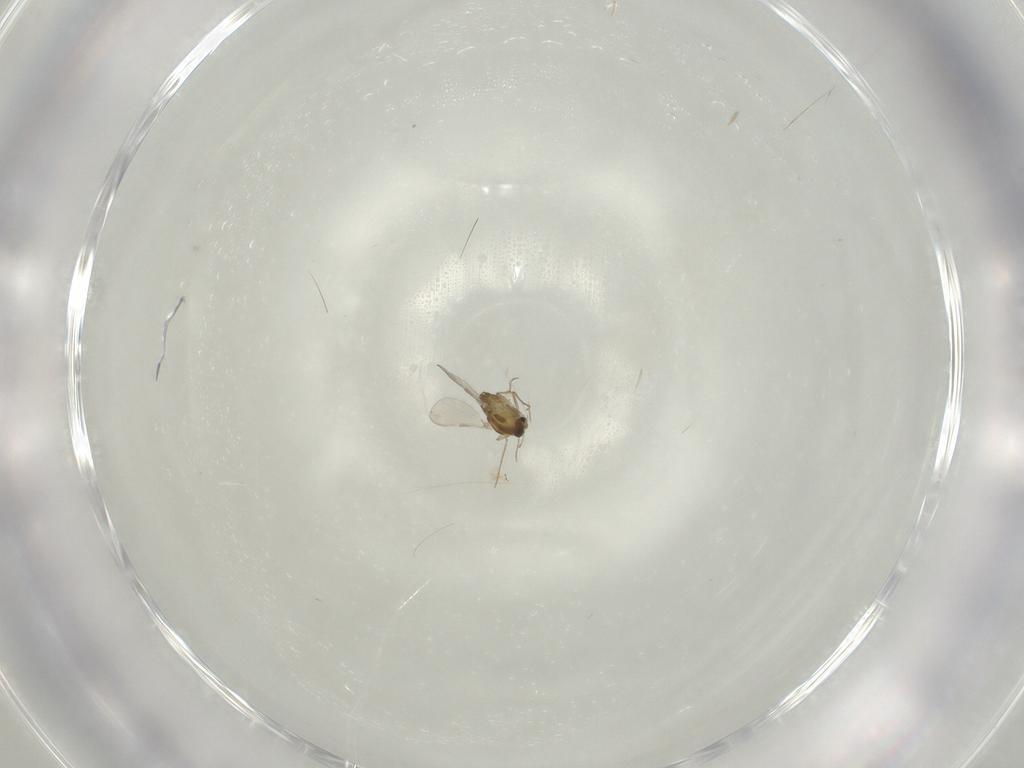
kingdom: Animalia
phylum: Arthropoda
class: Insecta
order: Diptera
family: Chironomidae
